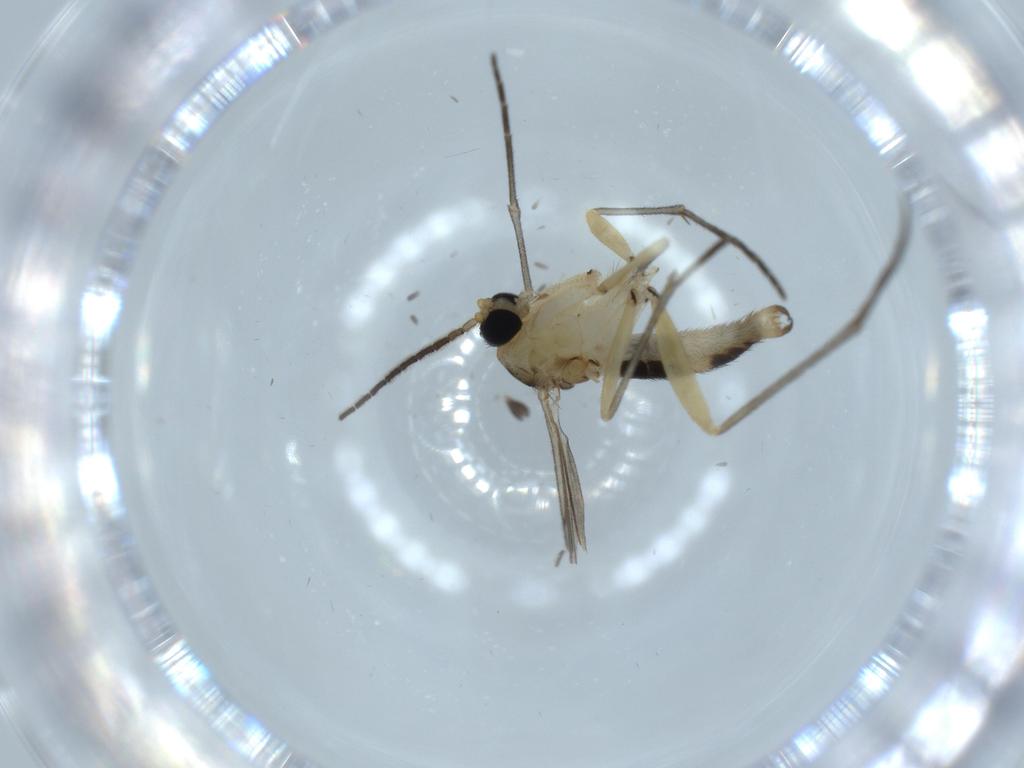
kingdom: Animalia
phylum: Arthropoda
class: Insecta
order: Diptera
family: Sciaridae
